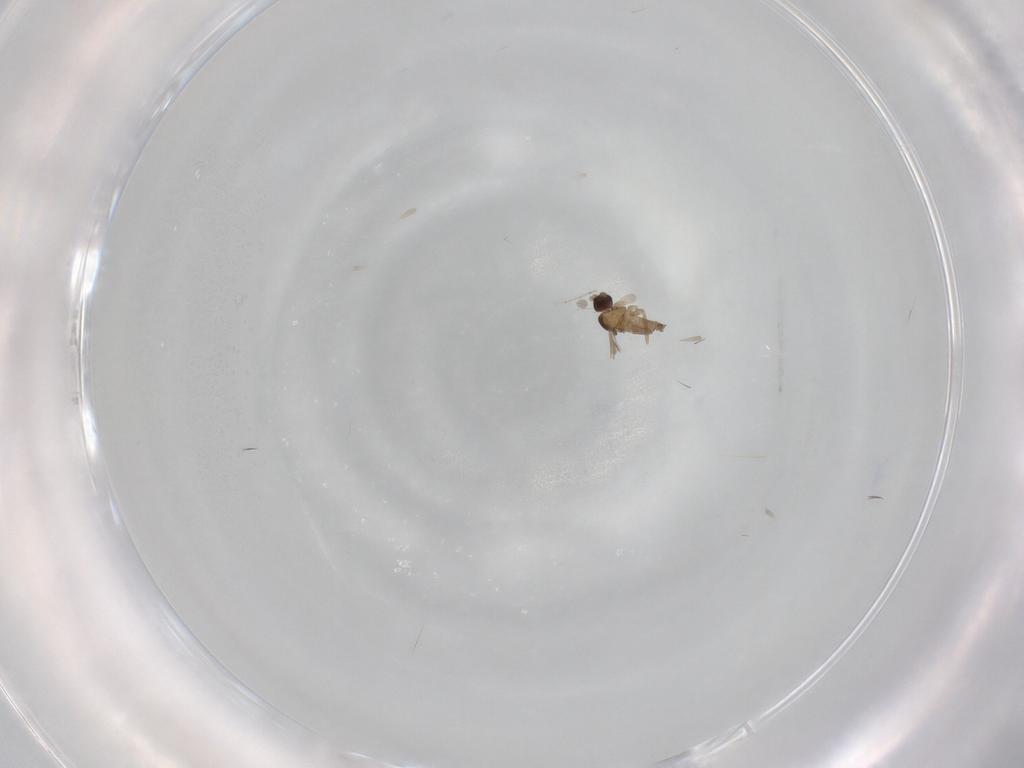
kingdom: Animalia
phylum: Arthropoda
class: Insecta
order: Diptera
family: Cecidomyiidae
